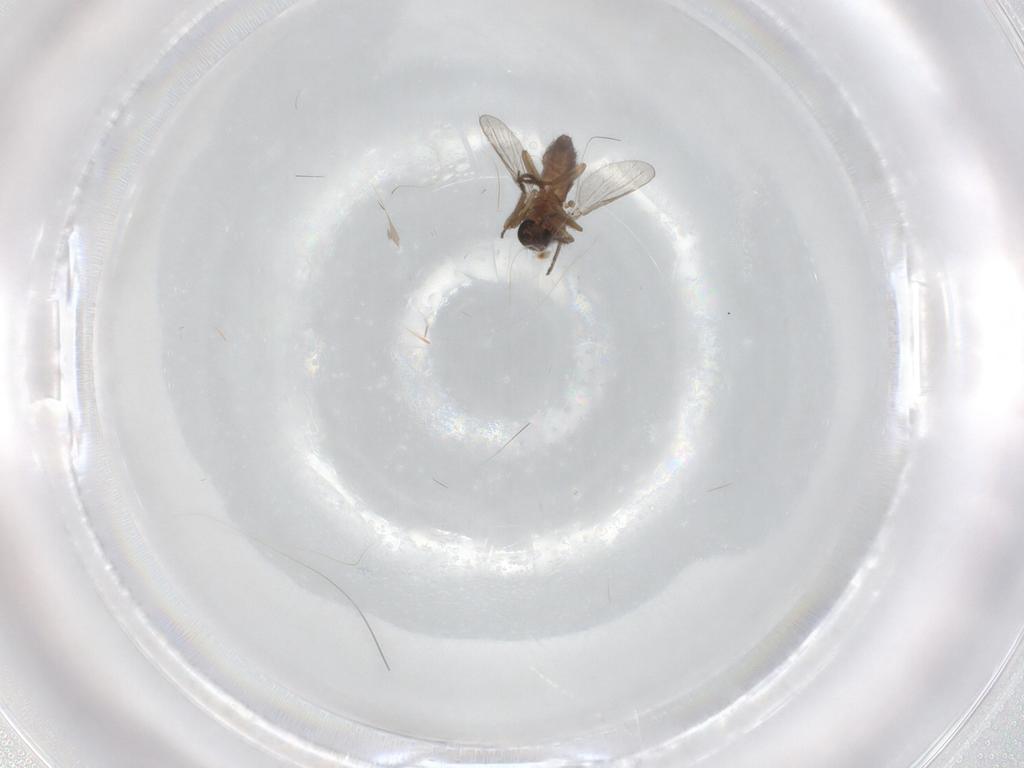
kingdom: Animalia
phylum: Arthropoda
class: Insecta
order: Diptera
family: Ceratopogonidae
